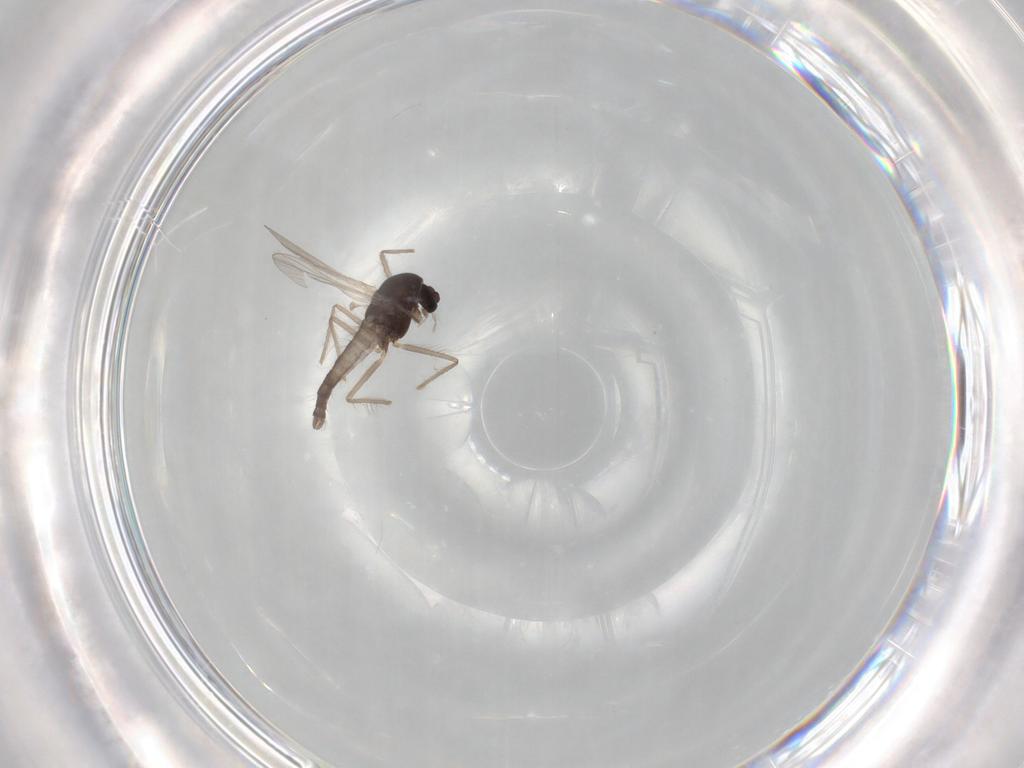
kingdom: Animalia
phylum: Arthropoda
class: Insecta
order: Diptera
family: Chironomidae
